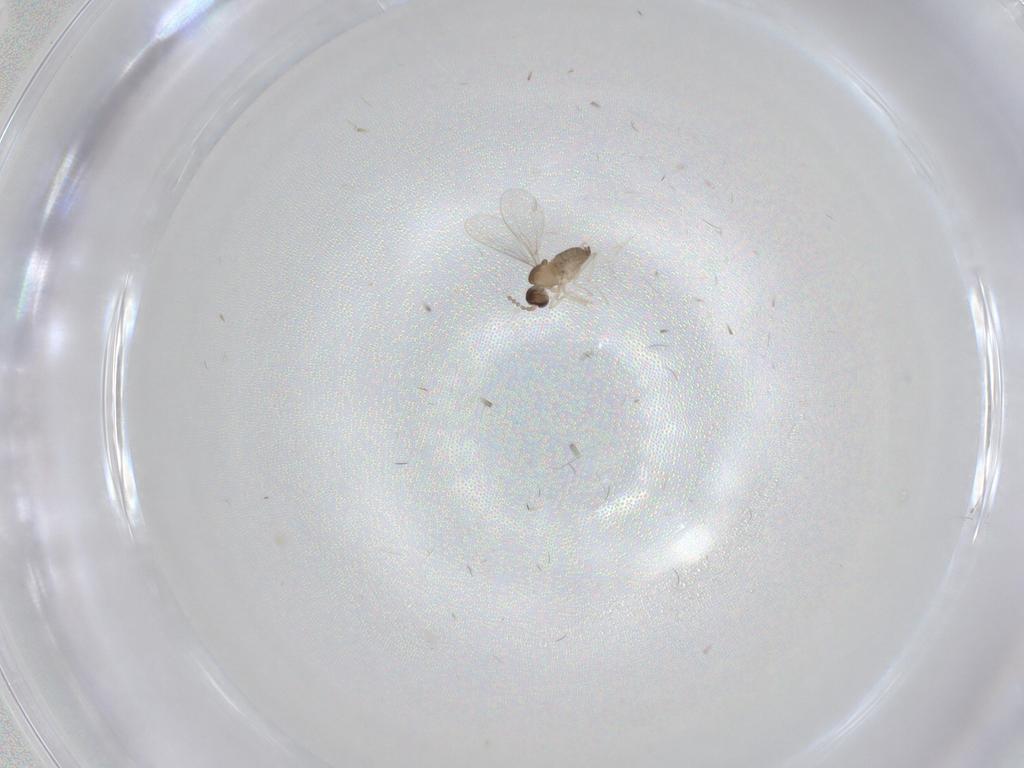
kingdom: Animalia
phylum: Arthropoda
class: Insecta
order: Diptera
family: Cecidomyiidae
